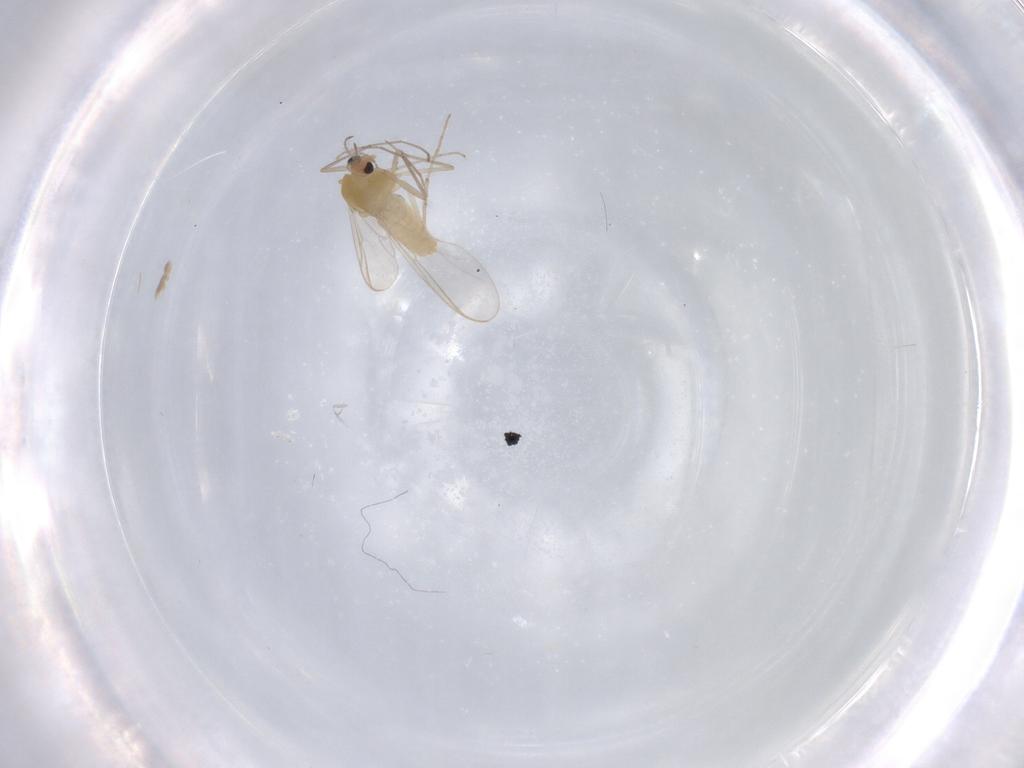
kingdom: Animalia
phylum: Arthropoda
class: Insecta
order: Diptera
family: Chironomidae
